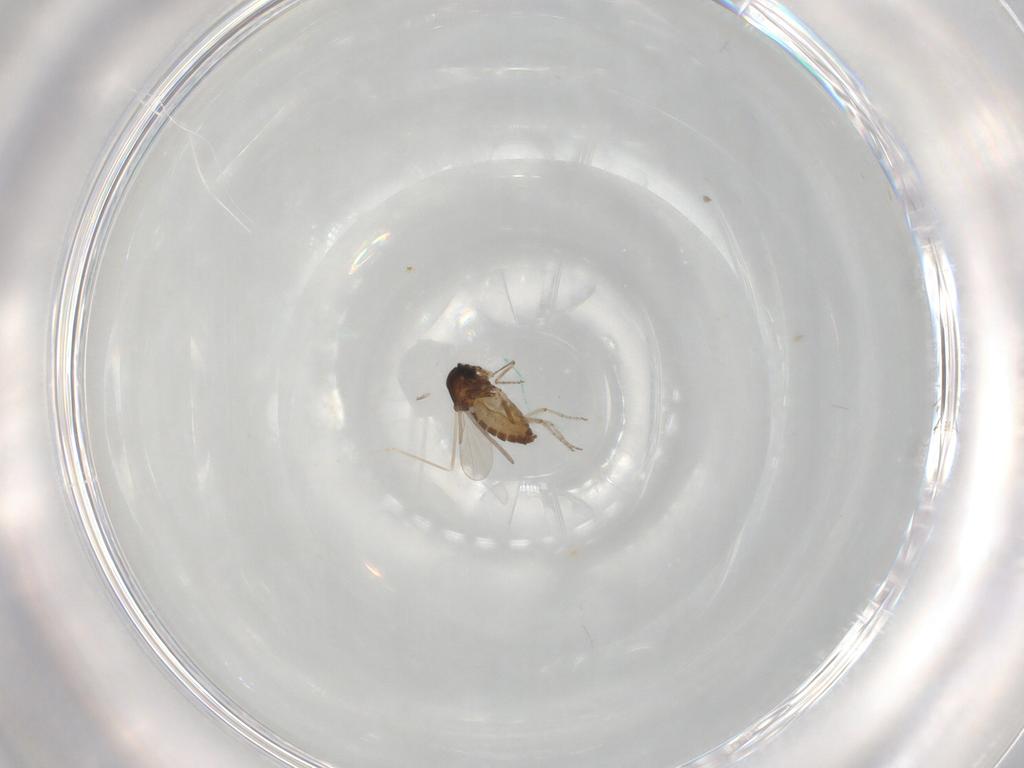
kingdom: Animalia
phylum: Arthropoda
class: Insecta
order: Diptera
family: Ceratopogonidae
